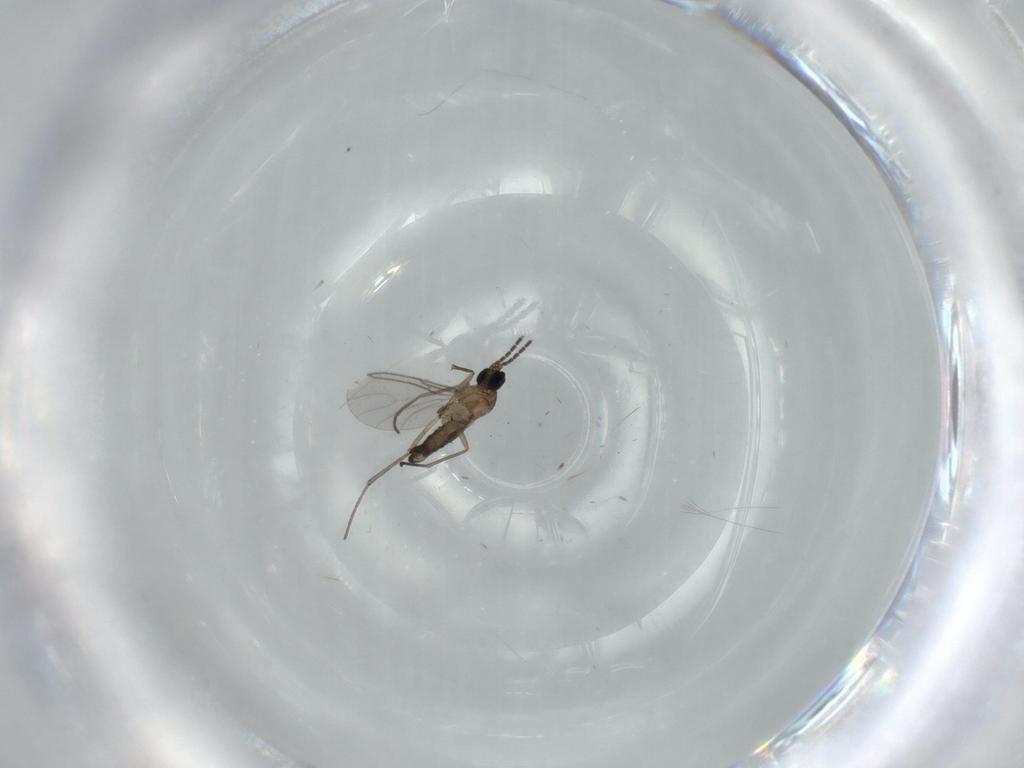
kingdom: Animalia
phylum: Arthropoda
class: Insecta
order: Diptera
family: Sciaridae
